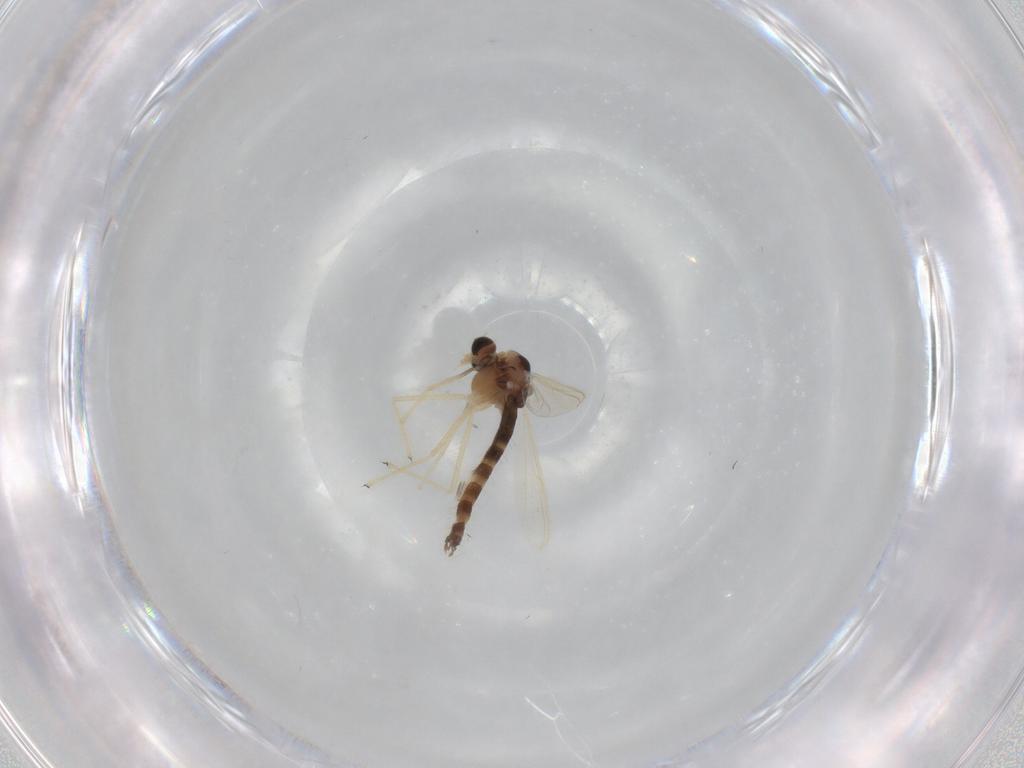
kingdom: Animalia
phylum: Arthropoda
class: Insecta
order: Diptera
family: Chironomidae
